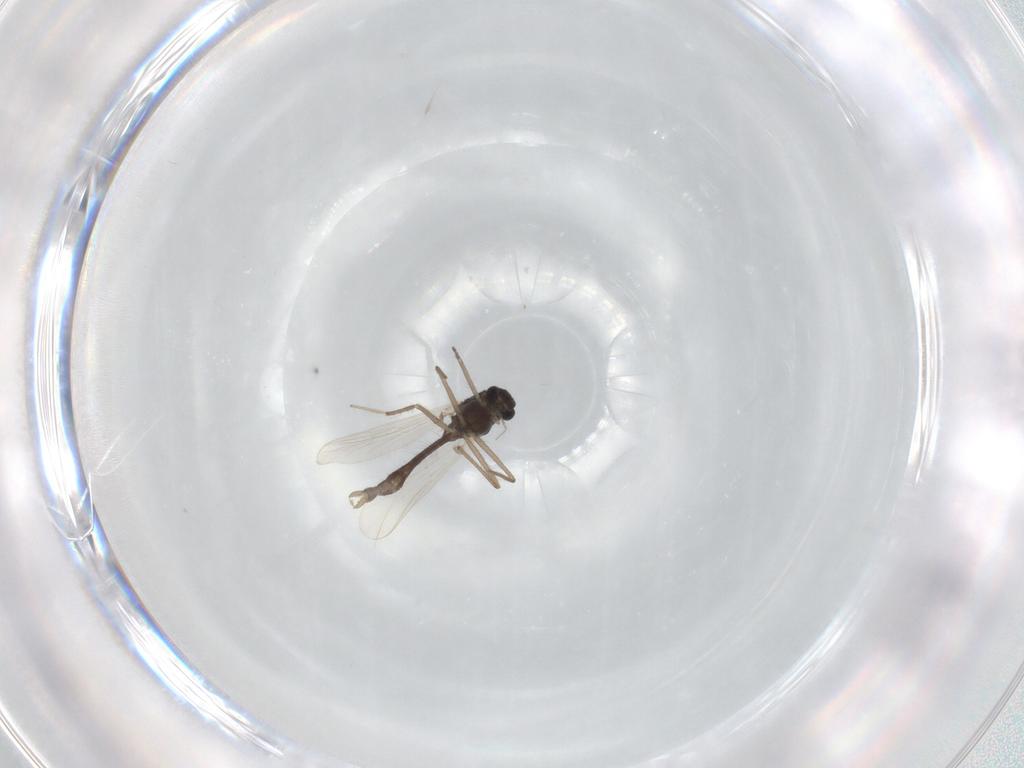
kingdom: Animalia
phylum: Arthropoda
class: Insecta
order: Diptera
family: Chironomidae
